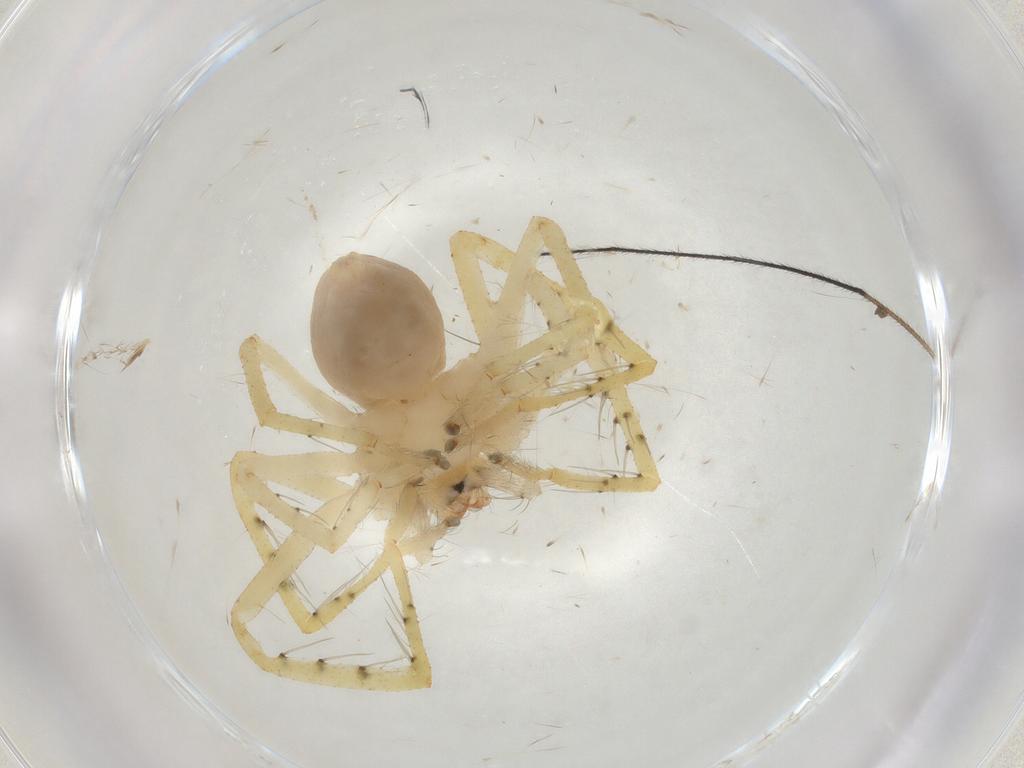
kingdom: Animalia
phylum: Arthropoda
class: Arachnida
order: Araneae
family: Sparassidae
